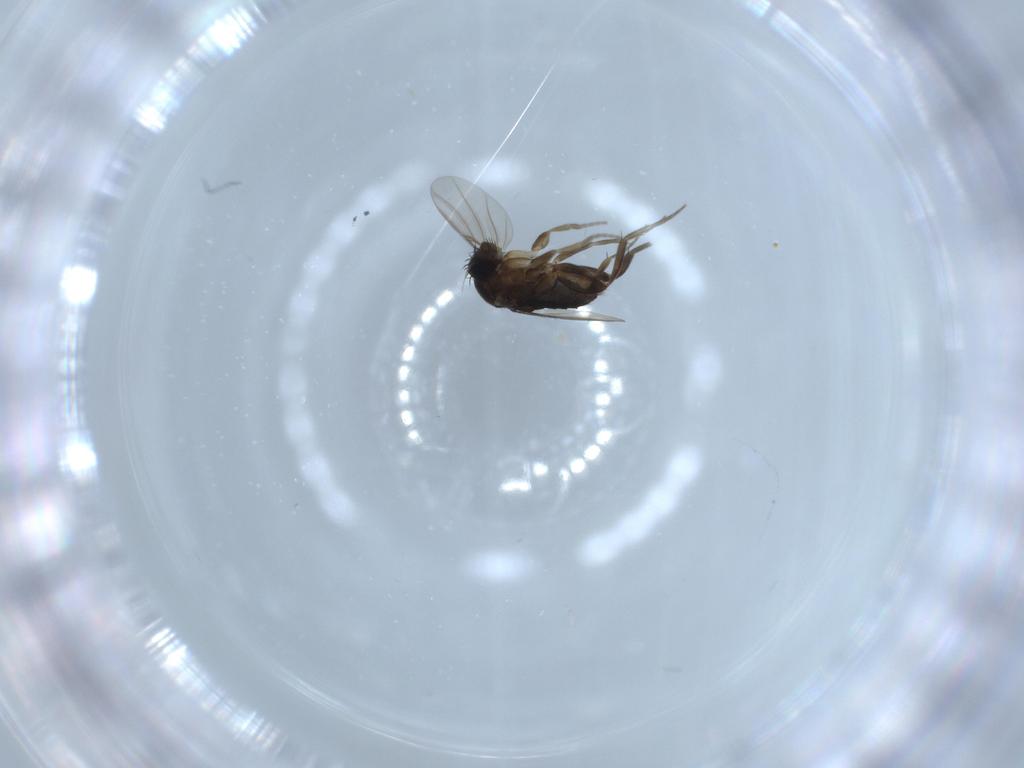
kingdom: Animalia
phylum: Arthropoda
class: Insecta
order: Diptera
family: Phoridae
